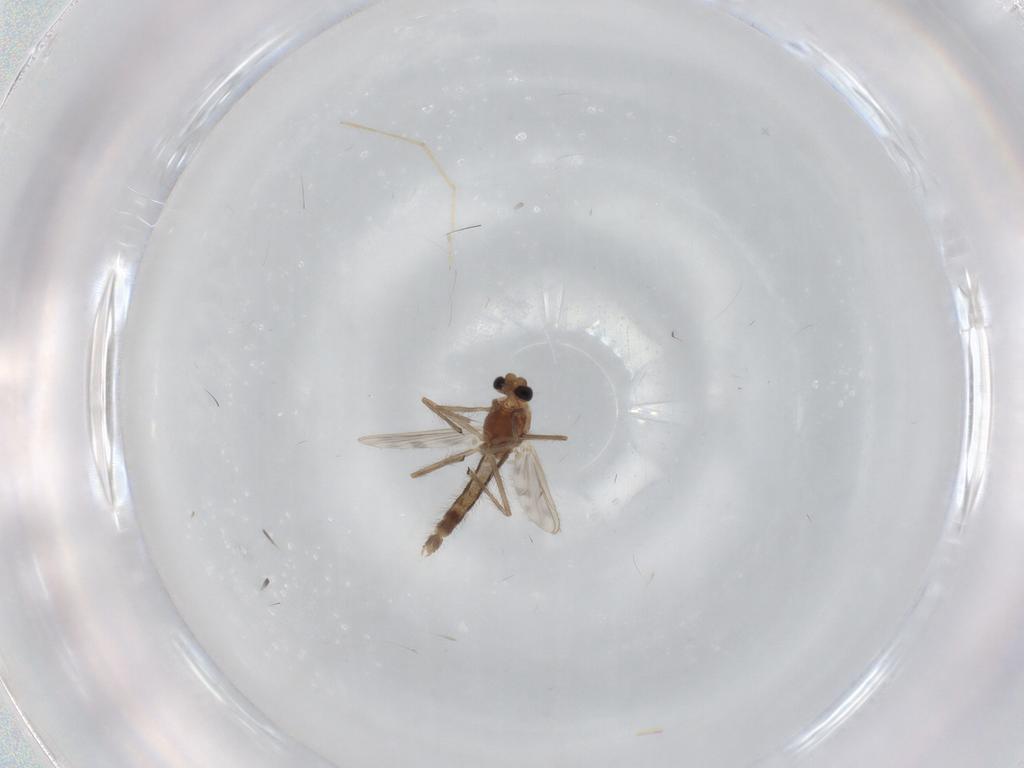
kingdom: Animalia
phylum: Arthropoda
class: Insecta
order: Diptera
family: Chironomidae
